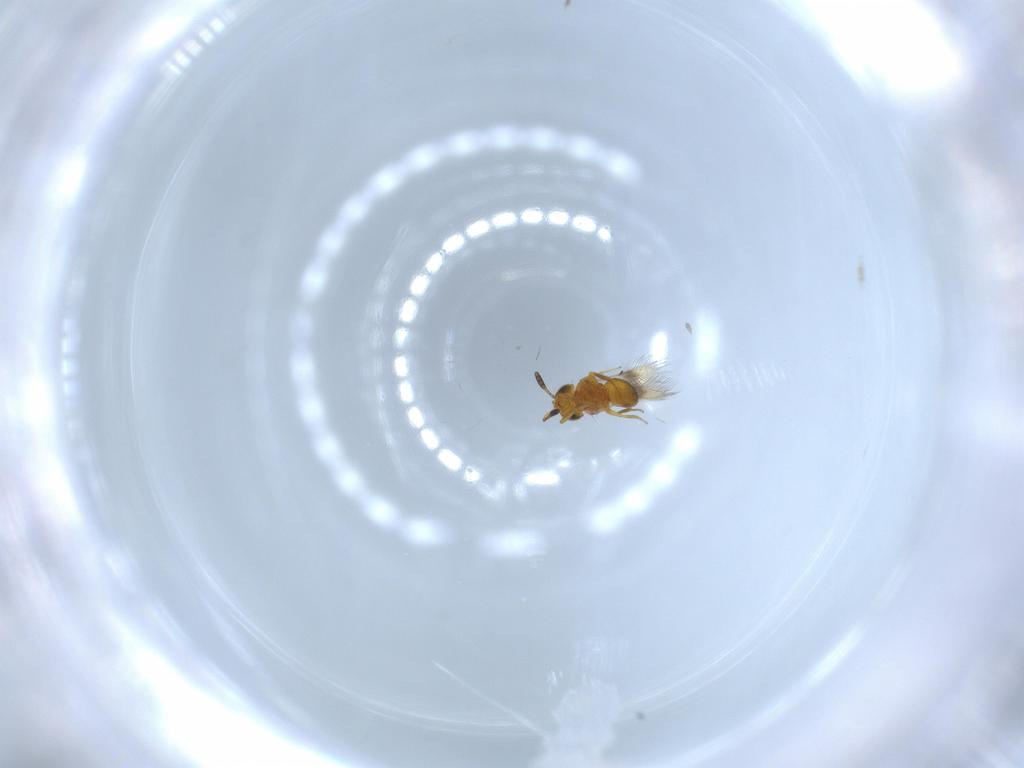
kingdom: Animalia
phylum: Arthropoda
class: Insecta
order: Hymenoptera
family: Scelionidae
